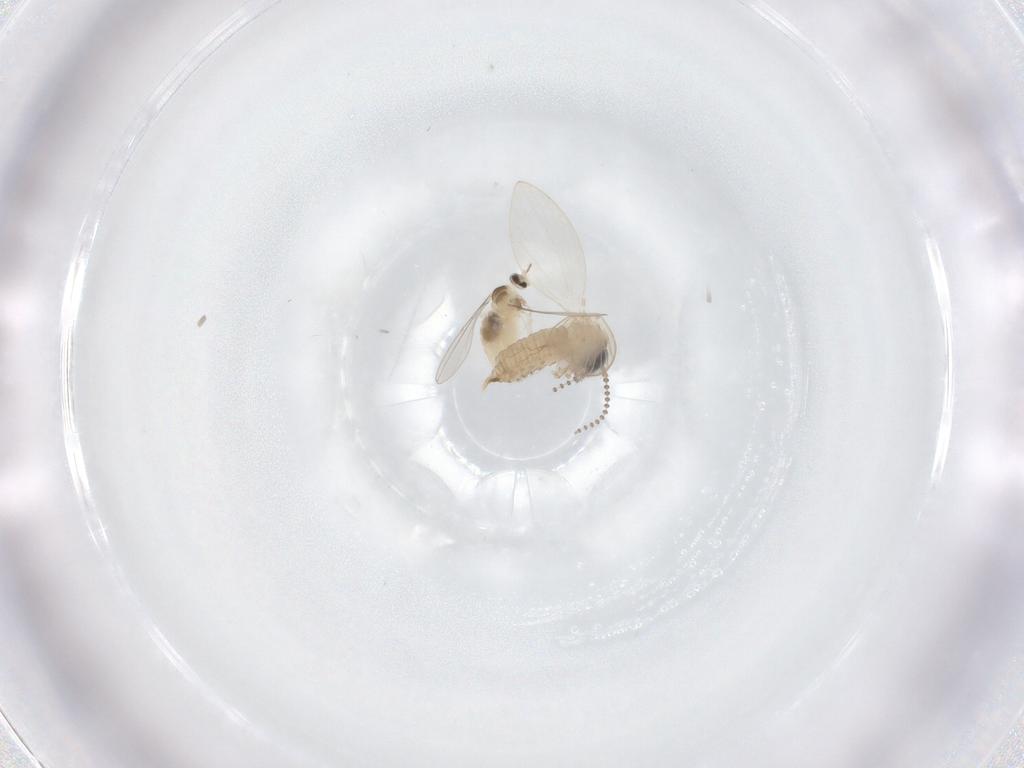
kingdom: Animalia
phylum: Arthropoda
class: Insecta
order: Diptera
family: Cecidomyiidae
